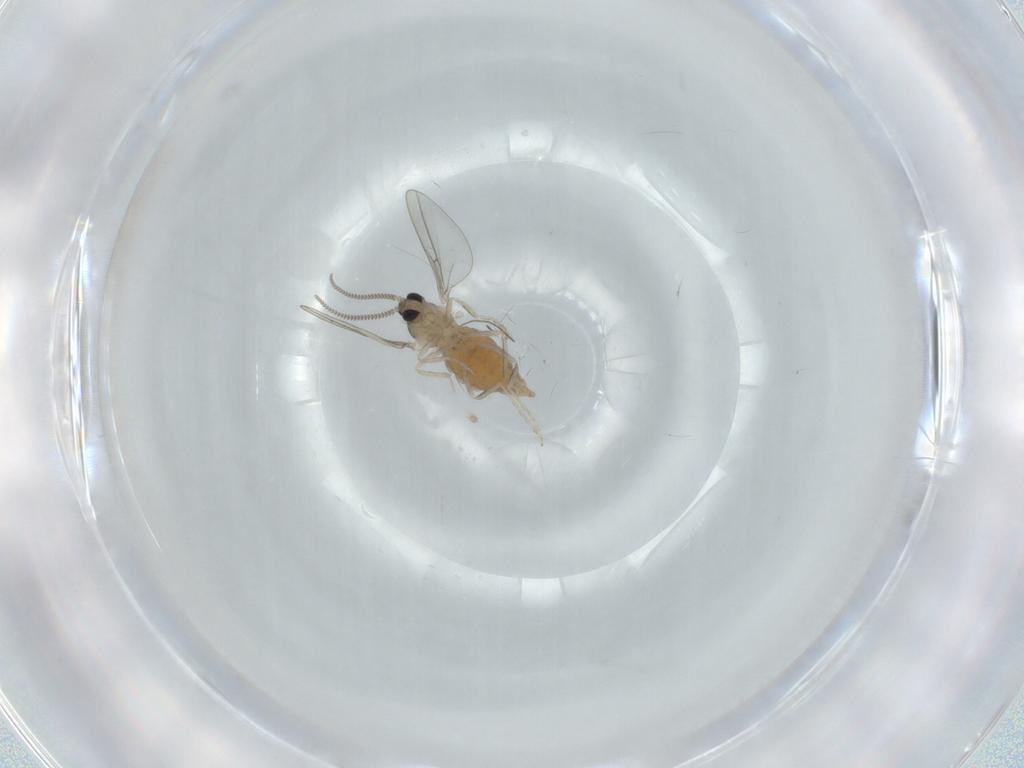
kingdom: Animalia
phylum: Arthropoda
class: Insecta
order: Diptera
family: Cecidomyiidae
